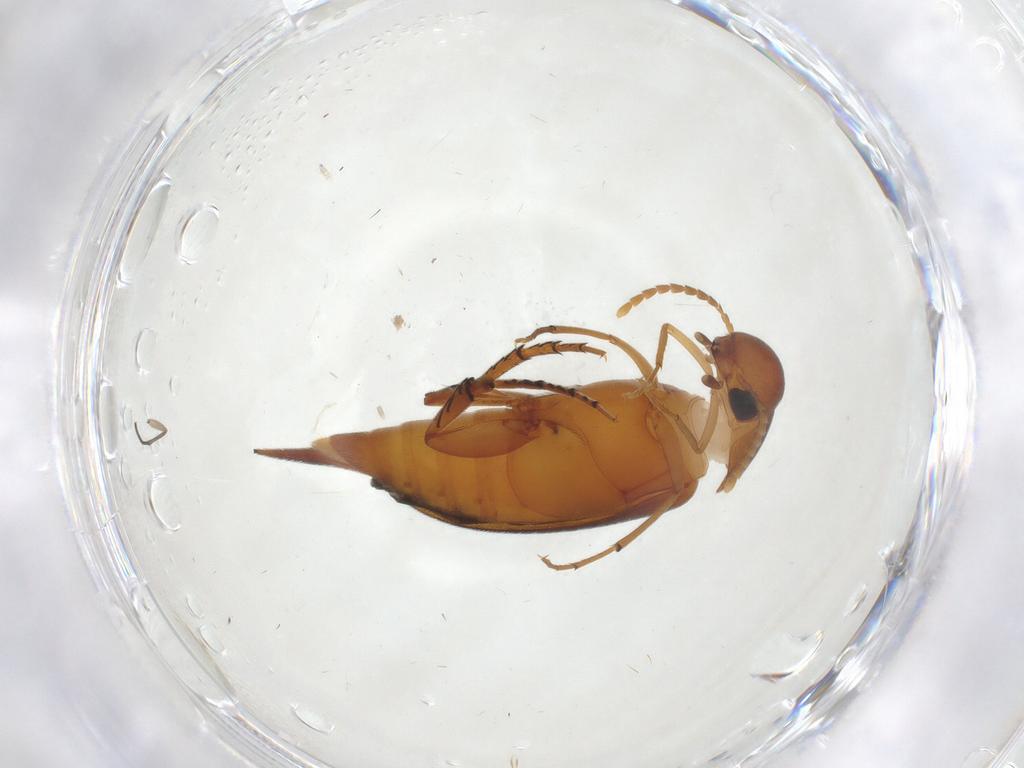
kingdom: Animalia
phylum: Arthropoda
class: Insecta
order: Coleoptera
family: Mordellidae
